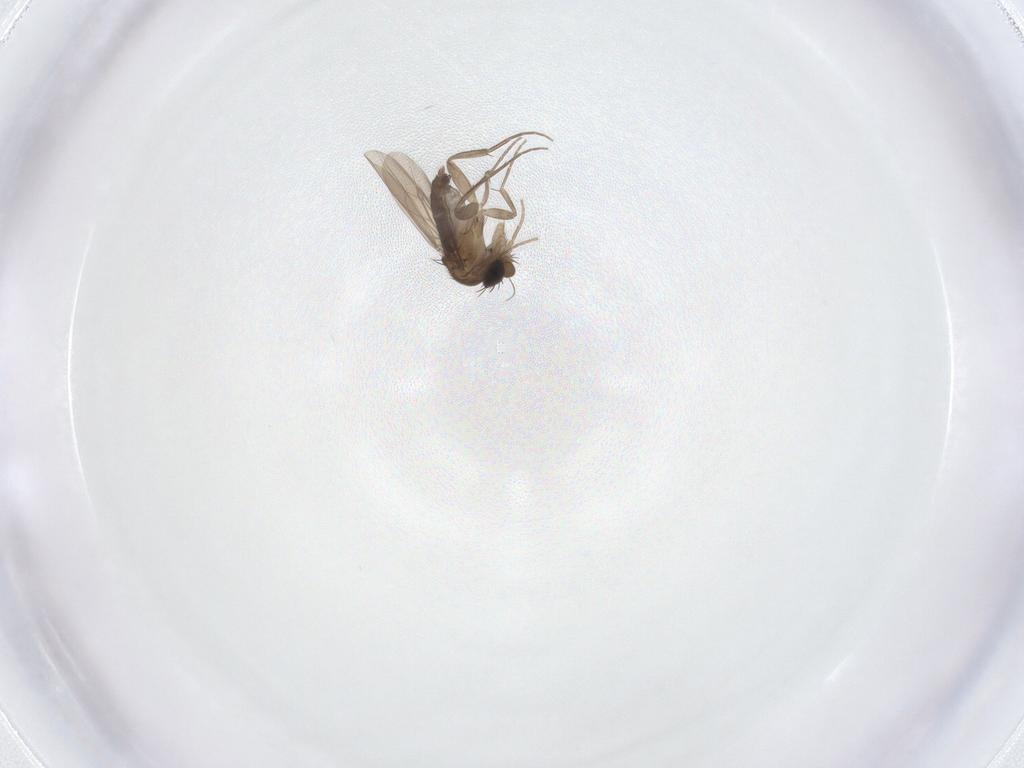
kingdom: Animalia
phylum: Arthropoda
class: Insecta
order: Diptera
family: Phoridae
